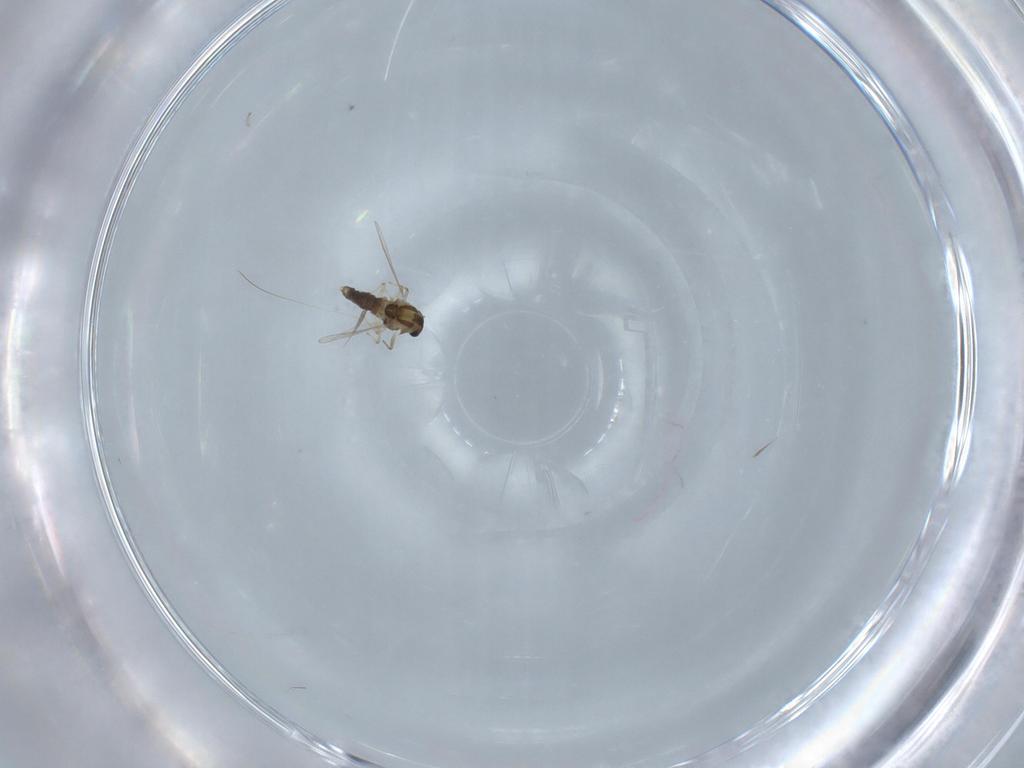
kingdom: Animalia
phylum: Arthropoda
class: Insecta
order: Diptera
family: Chironomidae
